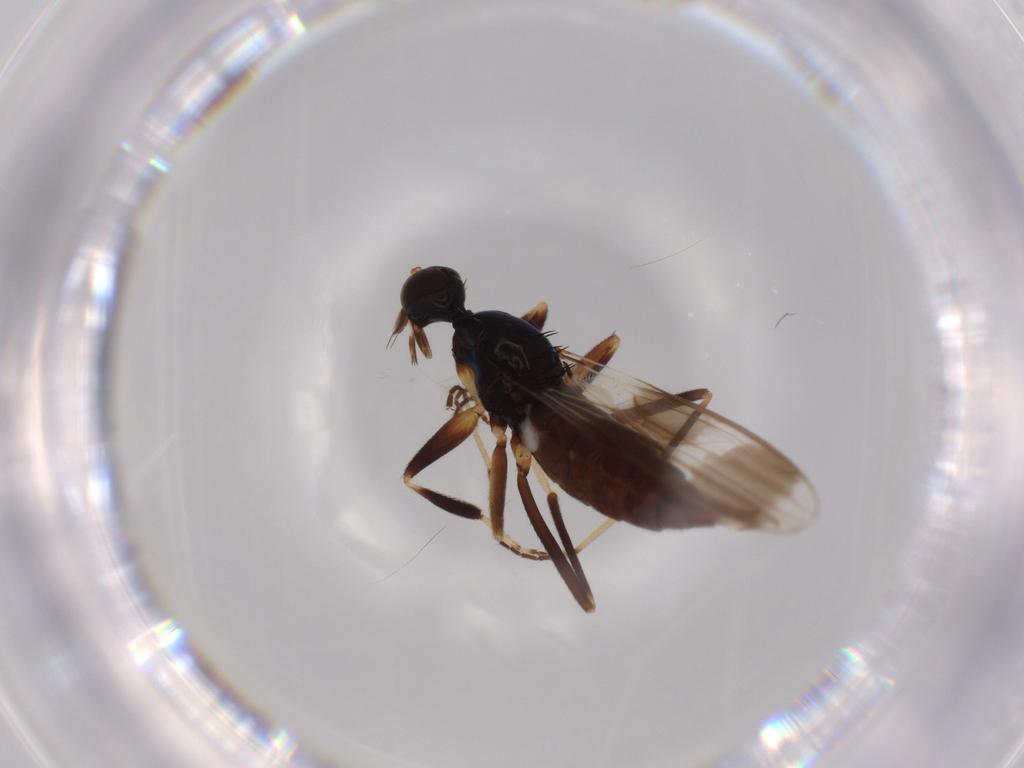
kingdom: Animalia
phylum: Arthropoda
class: Insecta
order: Diptera
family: Hybotidae
